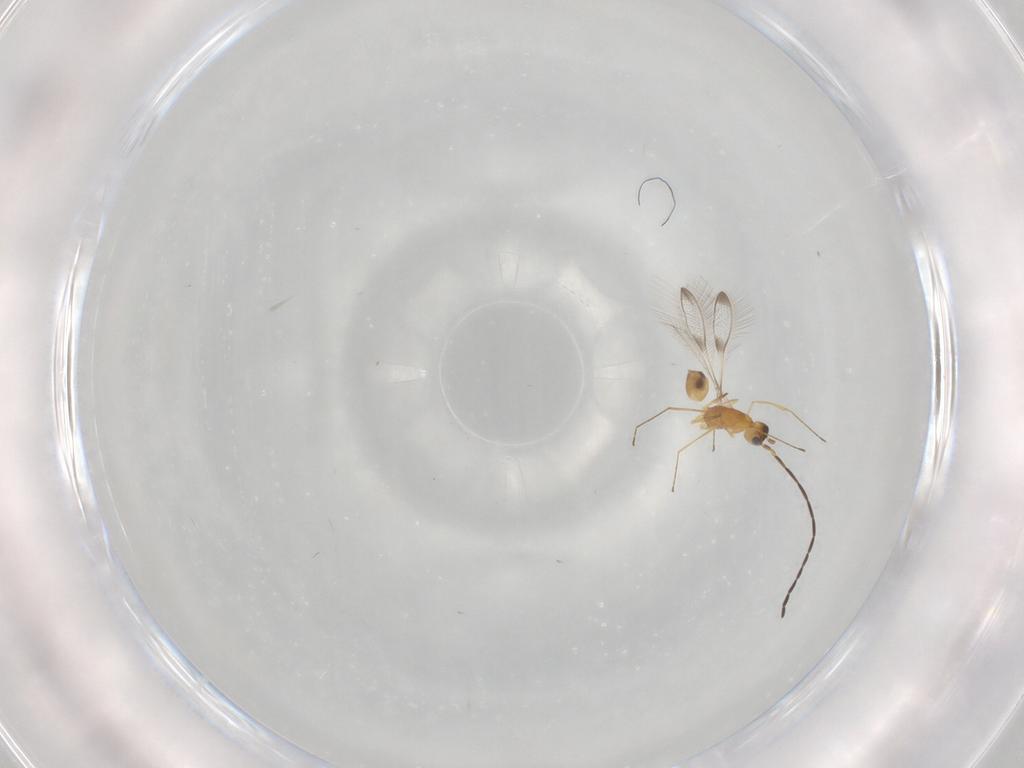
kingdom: Animalia
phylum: Arthropoda
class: Insecta
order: Hymenoptera
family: Mymaridae
